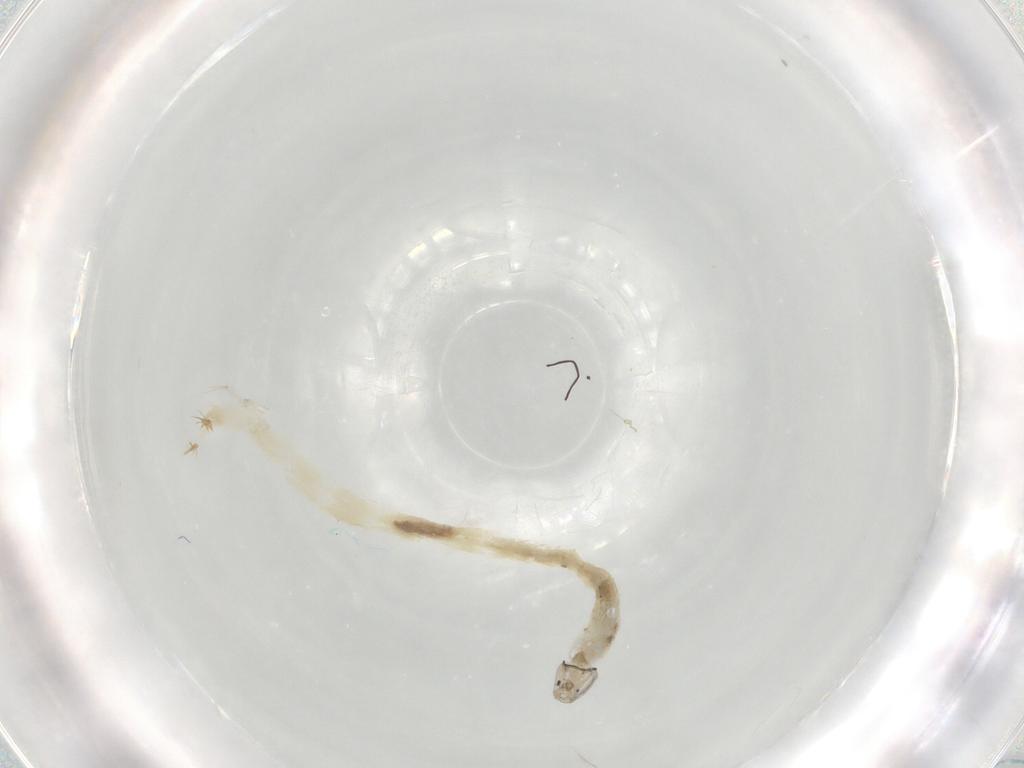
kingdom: Animalia
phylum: Arthropoda
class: Insecta
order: Diptera
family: Chironomidae
